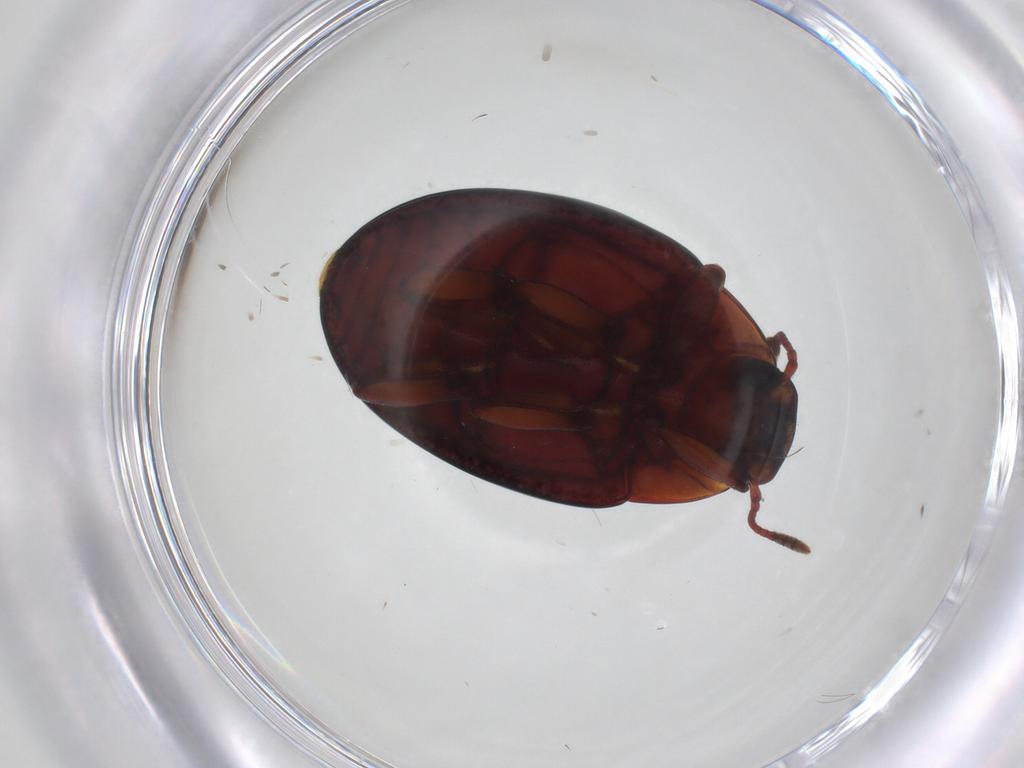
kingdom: Animalia
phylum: Arthropoda
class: Insecta
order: Coleoptera
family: Zopheridae
